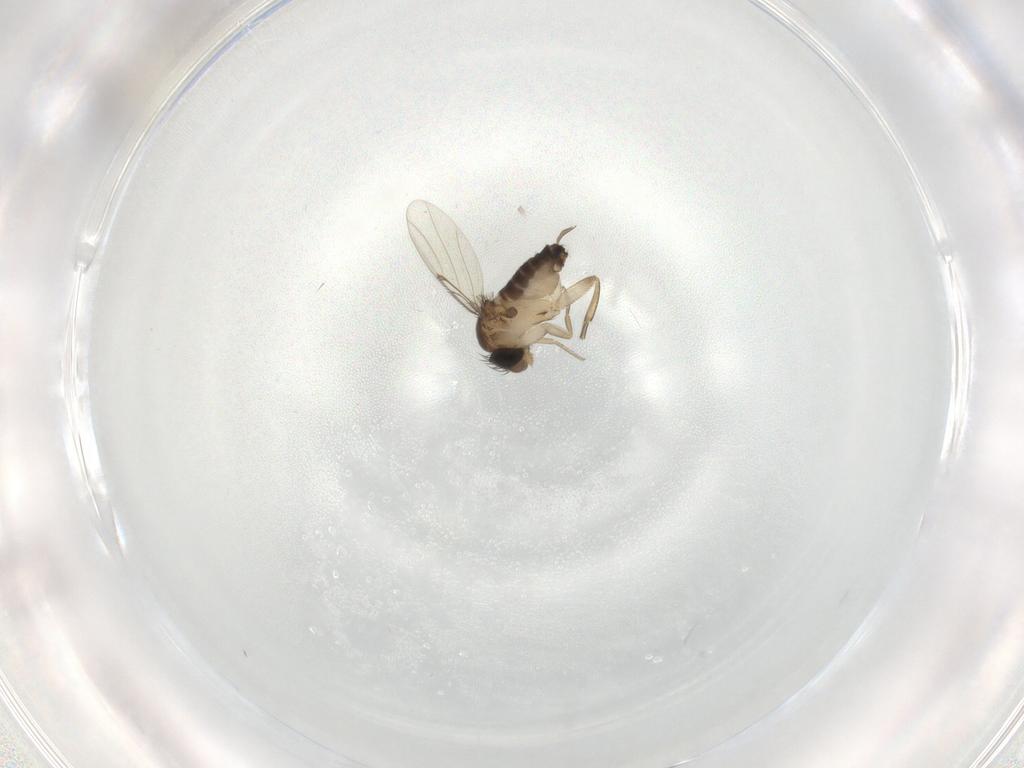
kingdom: Animalia
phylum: Arthropoda
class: Insecta
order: Diptera
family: Phoridae
